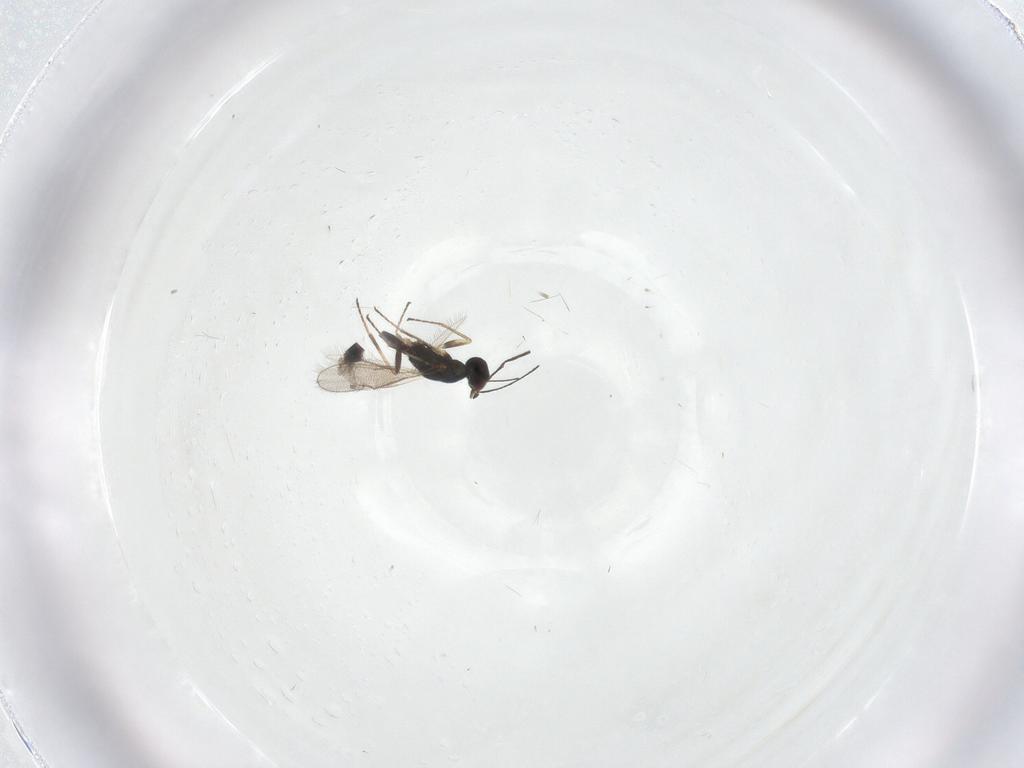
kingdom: Animalia
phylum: Arthropoda
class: Insecta
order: Hymenoptera
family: Eulophidae
